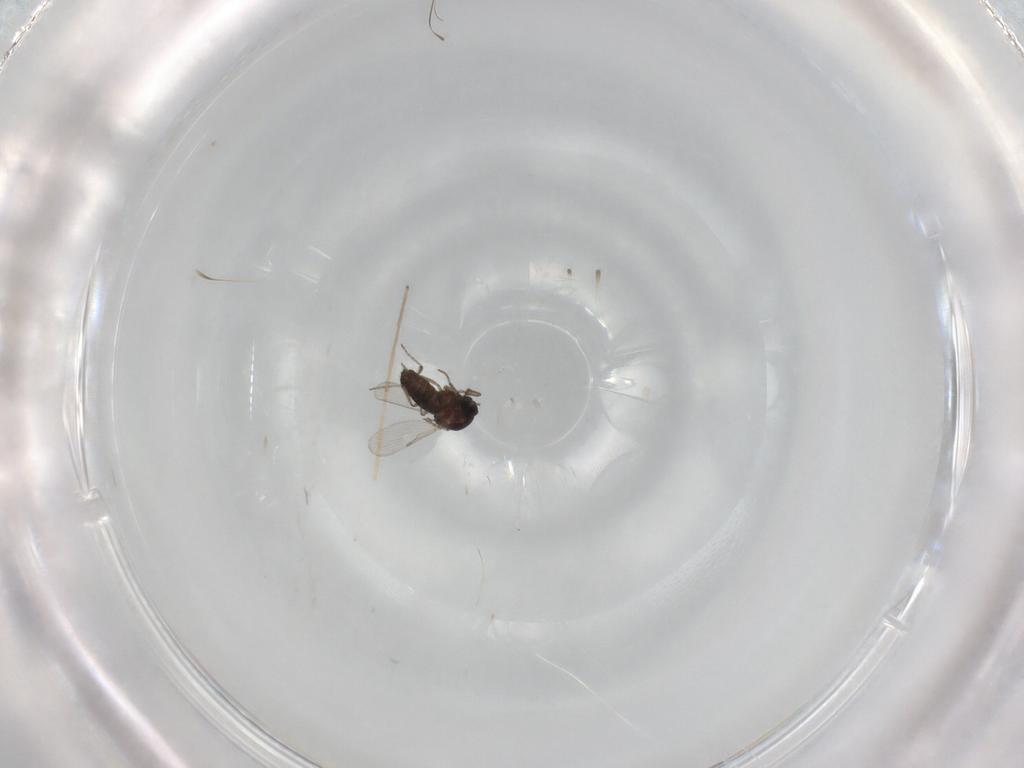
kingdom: Animalia
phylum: Arthropoda
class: Insecta
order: Diptera
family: Ceratopogonidae
